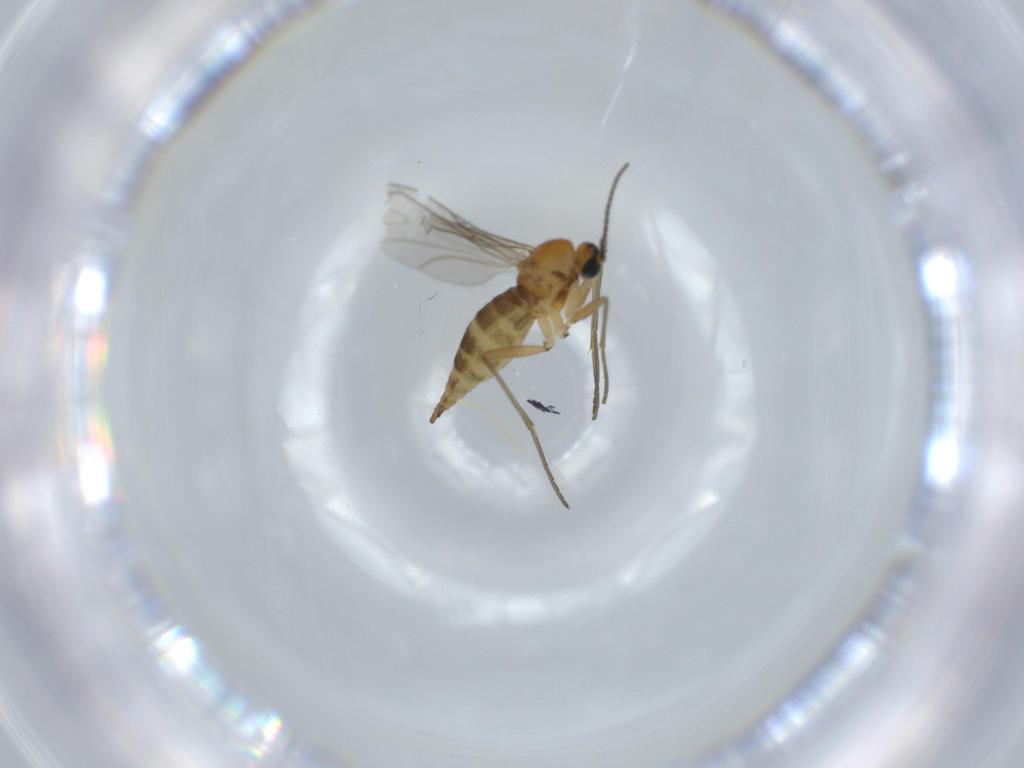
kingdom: Animalia
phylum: Arthropoda
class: Insecta
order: Diptera
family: Sciaridae
